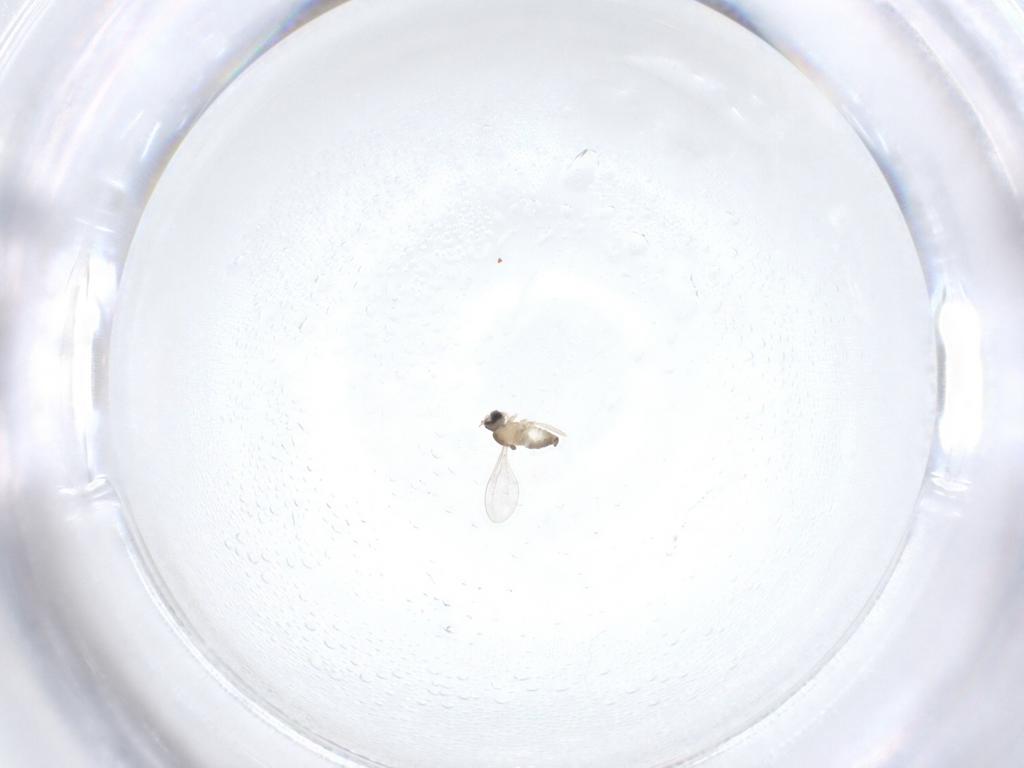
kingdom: Animalia
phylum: Arthropoda
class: Insecta
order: Diptera
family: Cecidomyiidae
